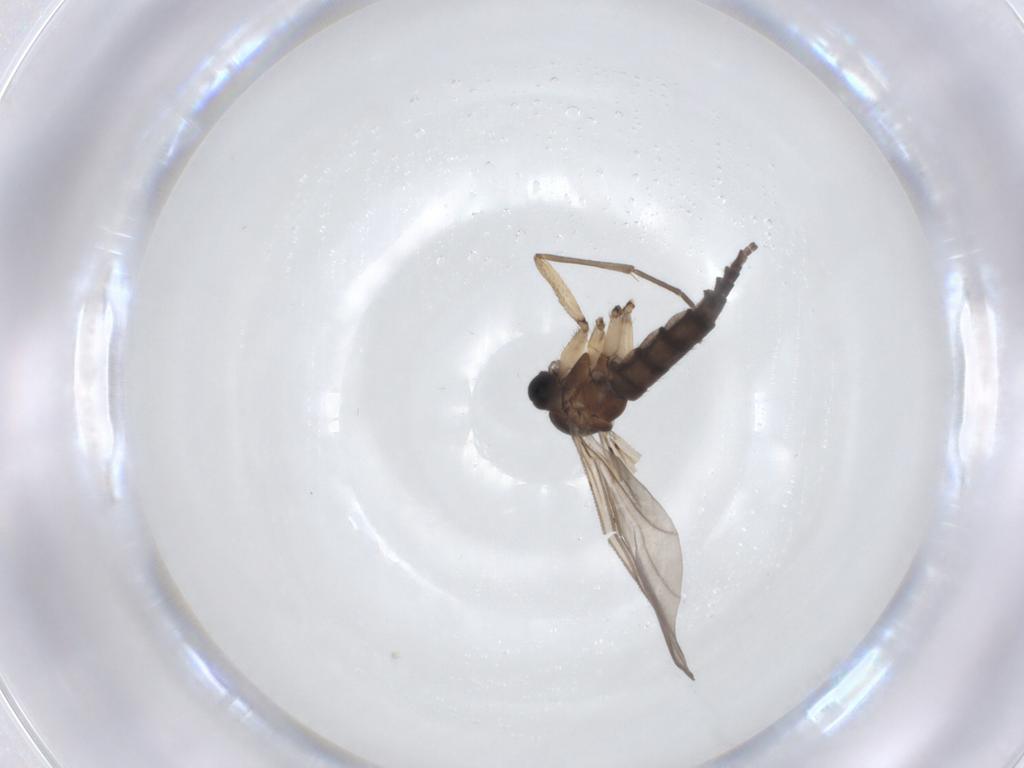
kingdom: Animalia
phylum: Arthropoda
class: Insecta
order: Diptera
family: Sciaridae
